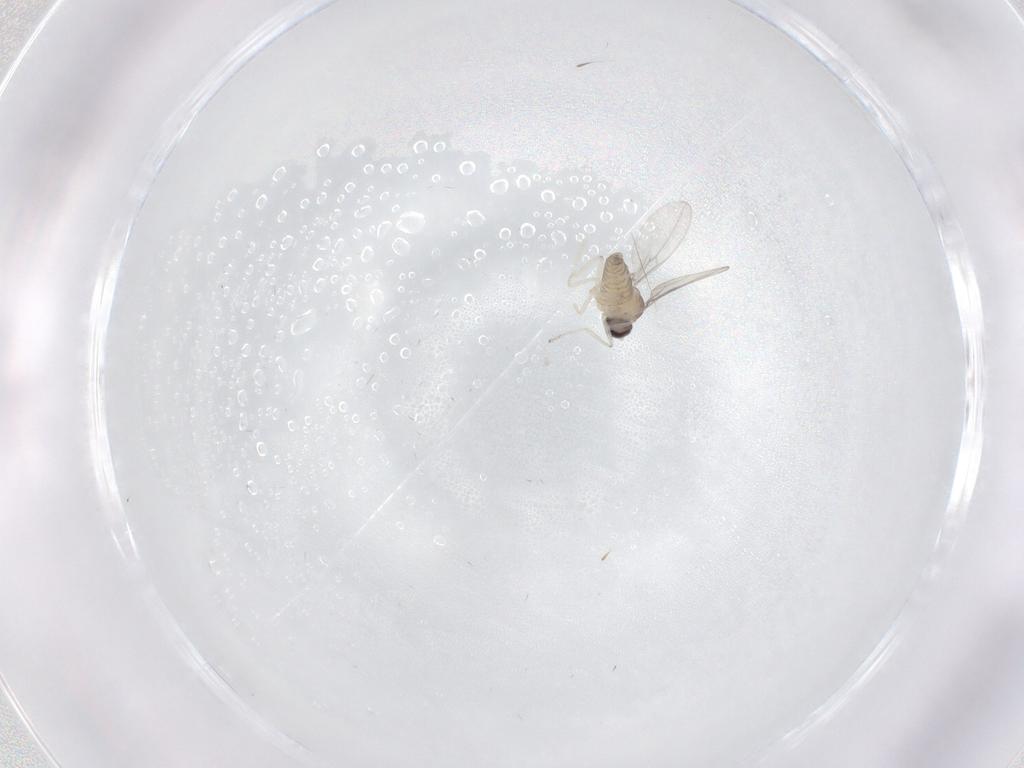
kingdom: Animalia
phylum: Arthropoda
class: Insecta
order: Diptera
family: Cecidomyiidae
